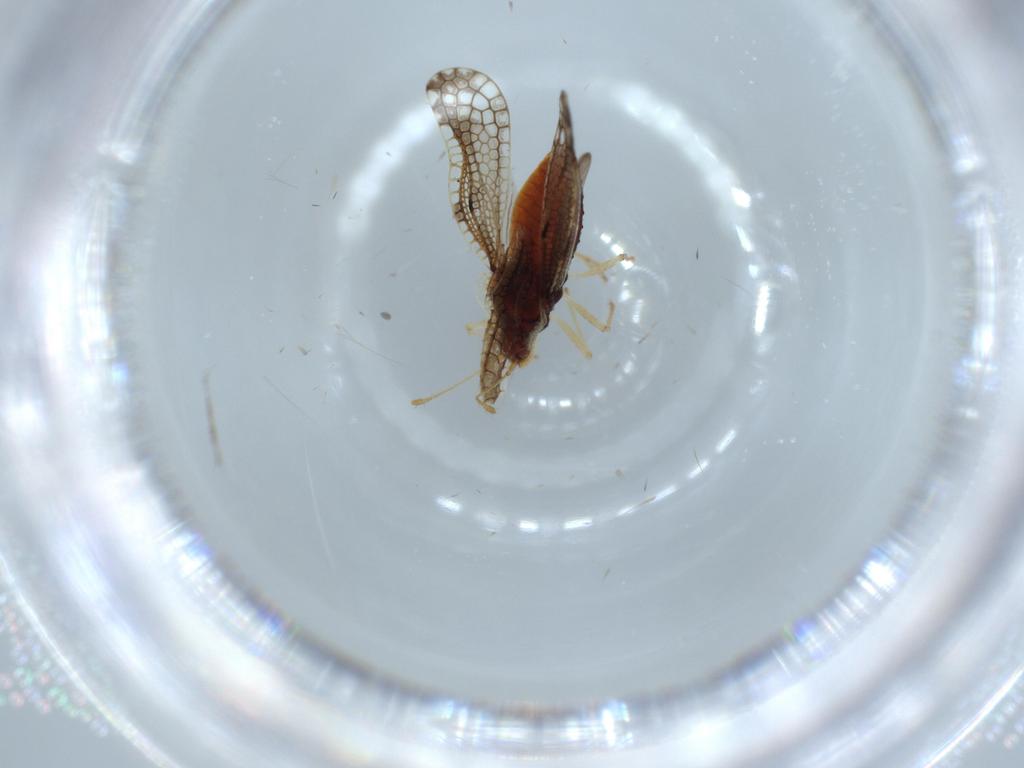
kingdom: Animalia
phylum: Arthropoda
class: Insecta
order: Hemiptera
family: Tingidae
